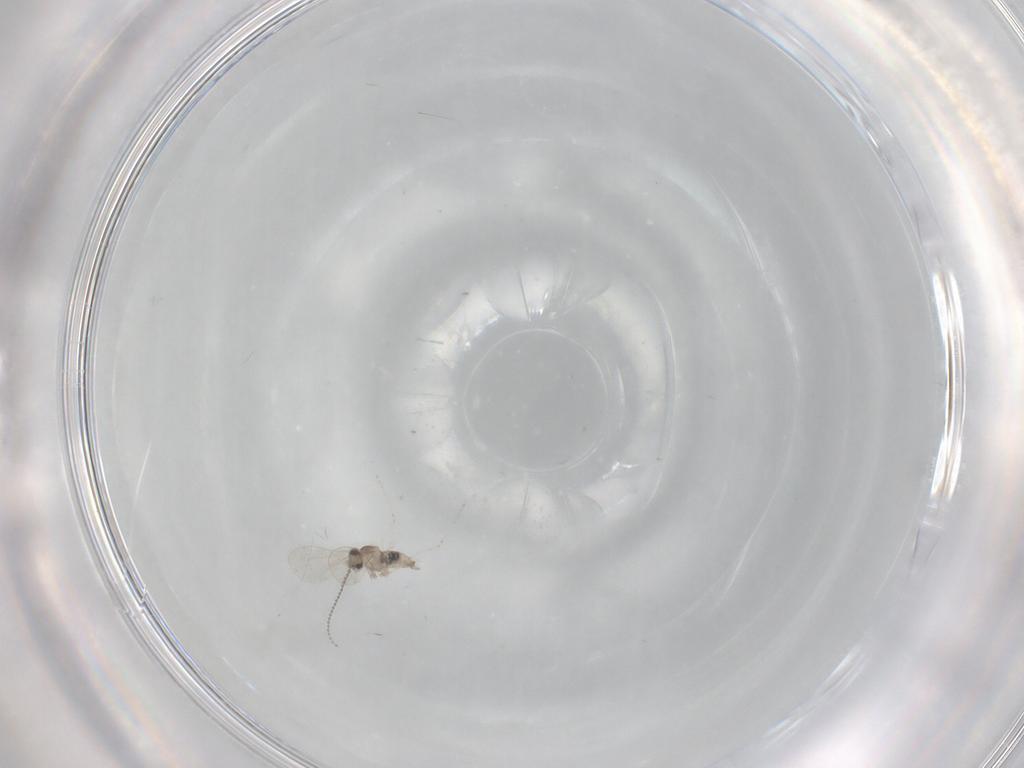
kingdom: Animalia
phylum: Arthropoda
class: Insecta
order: Diptera
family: Cecidomyiidae
